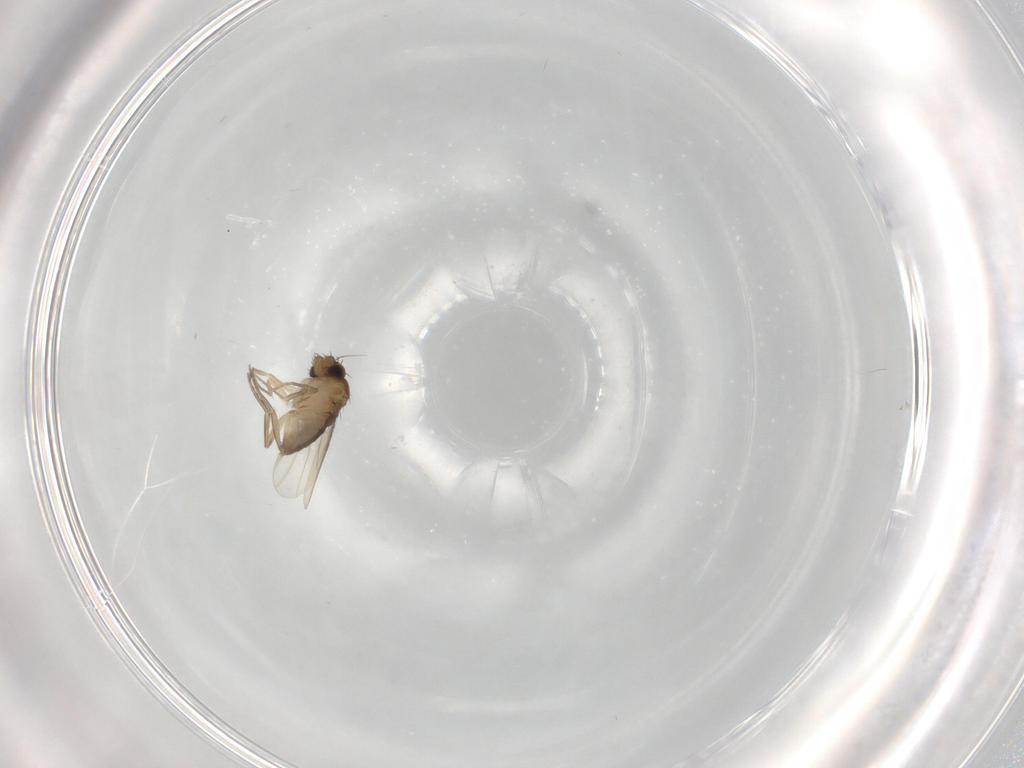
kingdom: Animalia
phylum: Arthropoda
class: Insecta
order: Diptera
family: Phoridae
